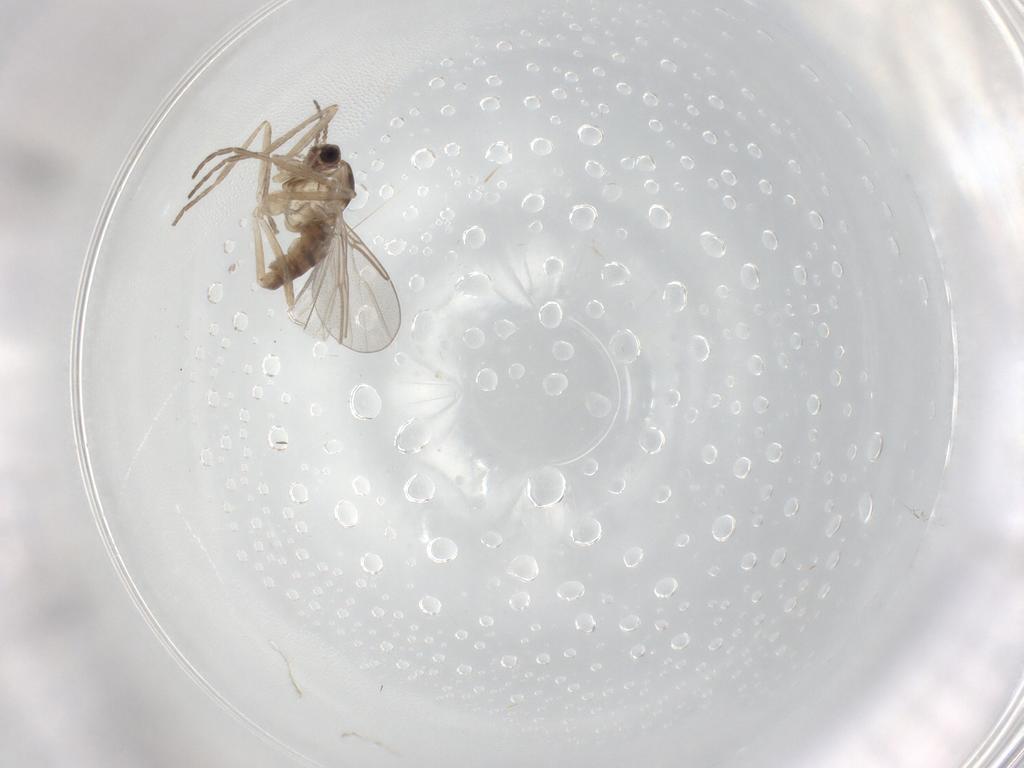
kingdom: Animalia
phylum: Arthropoda
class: Insecta
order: Diptera
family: Cecidomyiidae
